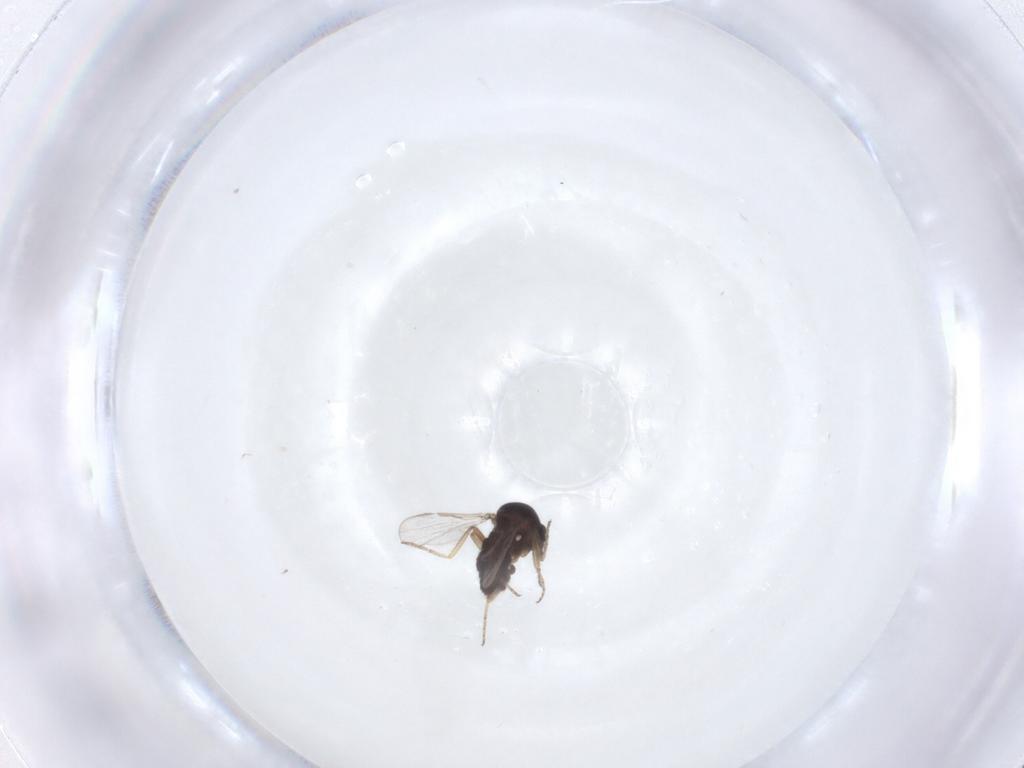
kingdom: Animalia
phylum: Arthropoda
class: Insecta
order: Diptera
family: Ceratopogonidae
